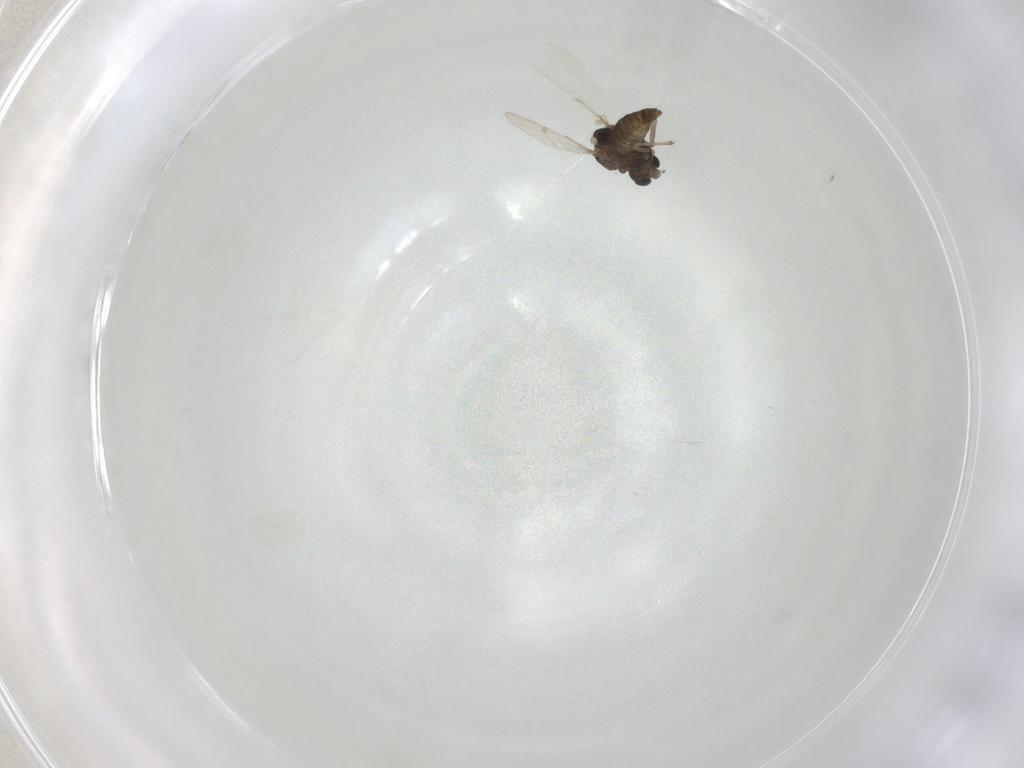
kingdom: Animalia
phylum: Arthropoda
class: Insecta
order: Diptera
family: Chironomidae
